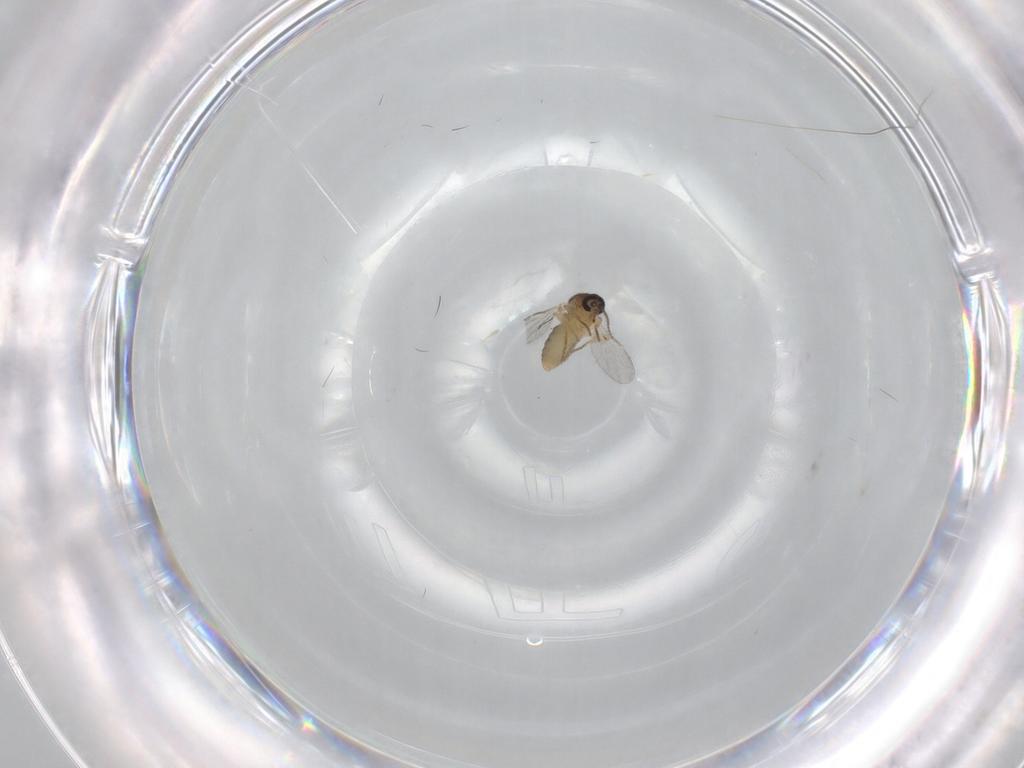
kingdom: Animalia
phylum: Arthropoda
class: Insecta
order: Diptera
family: Ceratopogonidae
